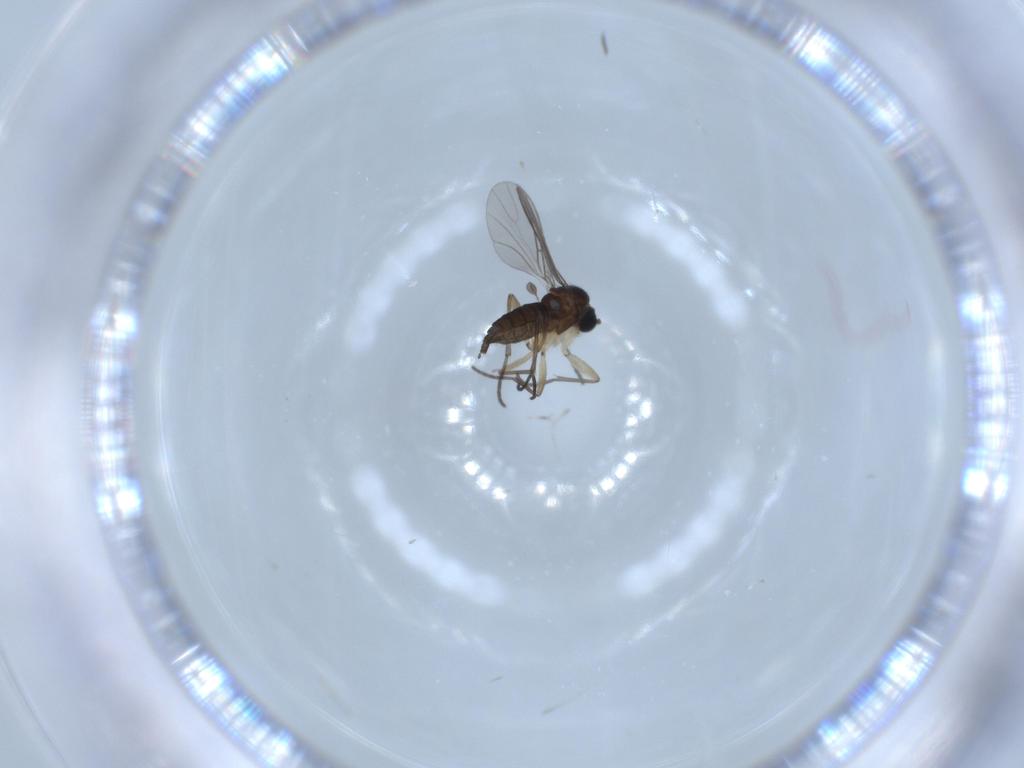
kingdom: Animalia
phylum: Arthropoda
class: Insecta
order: Diptera
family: Sciaridae
